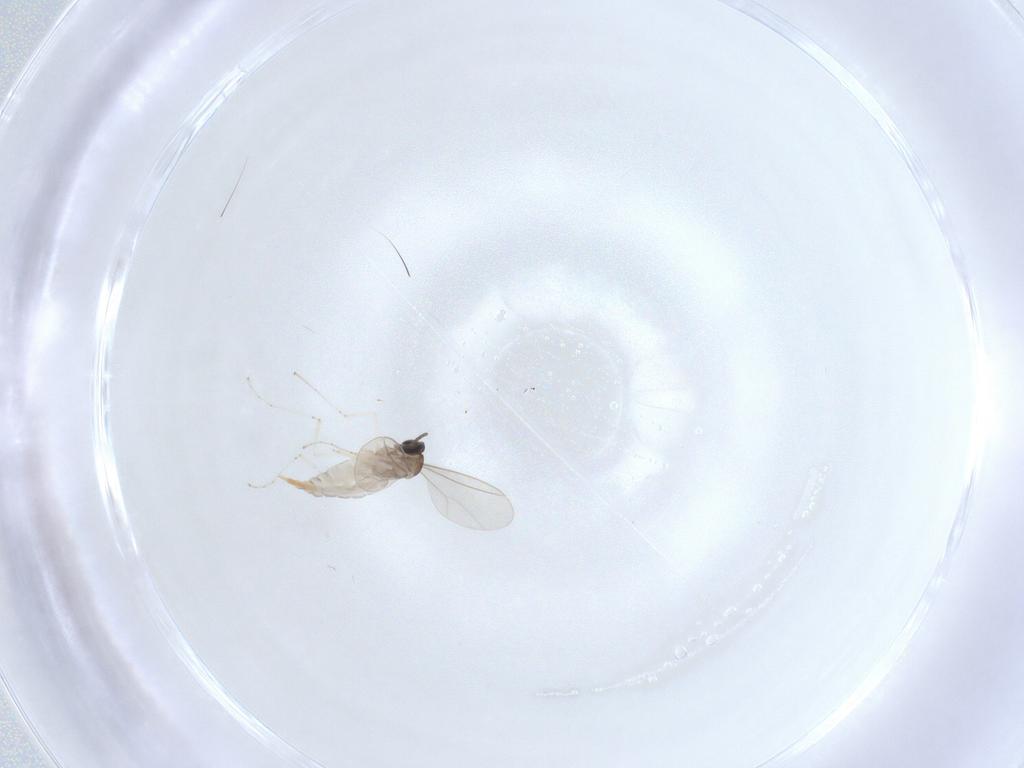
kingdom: Animalia
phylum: Arthropoda
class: Insecta
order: Diptera
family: Cecidomyiidae
